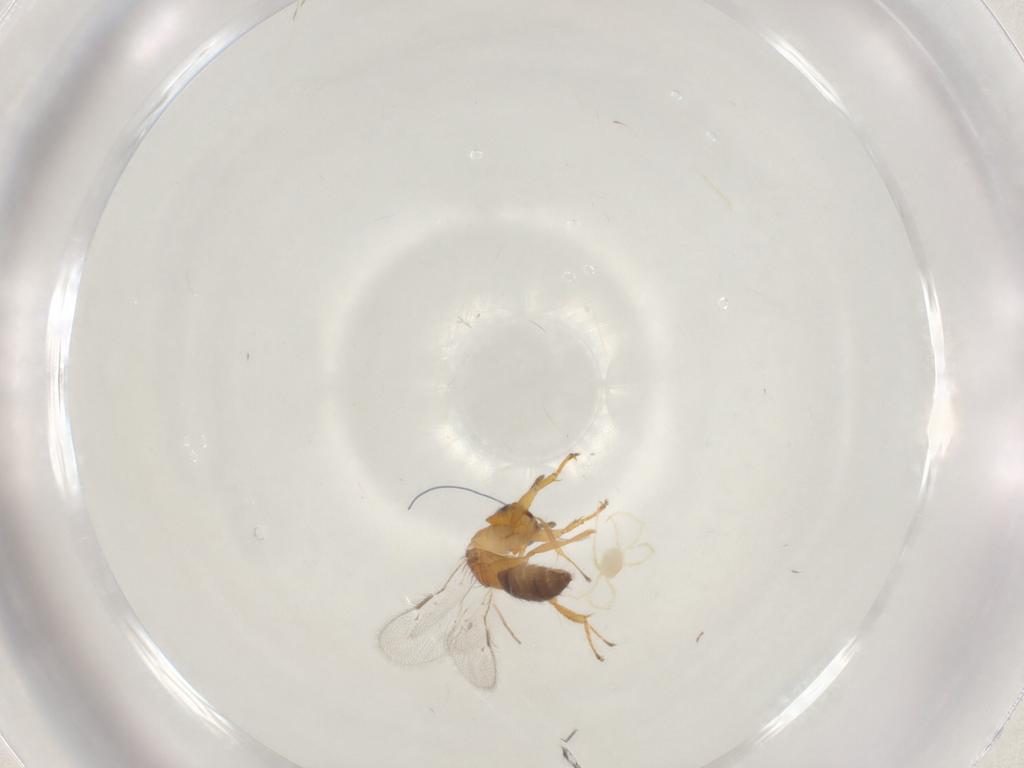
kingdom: Animalia
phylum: Arthropoda
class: Insecta
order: Hymenoptera
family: Pteromalidae
